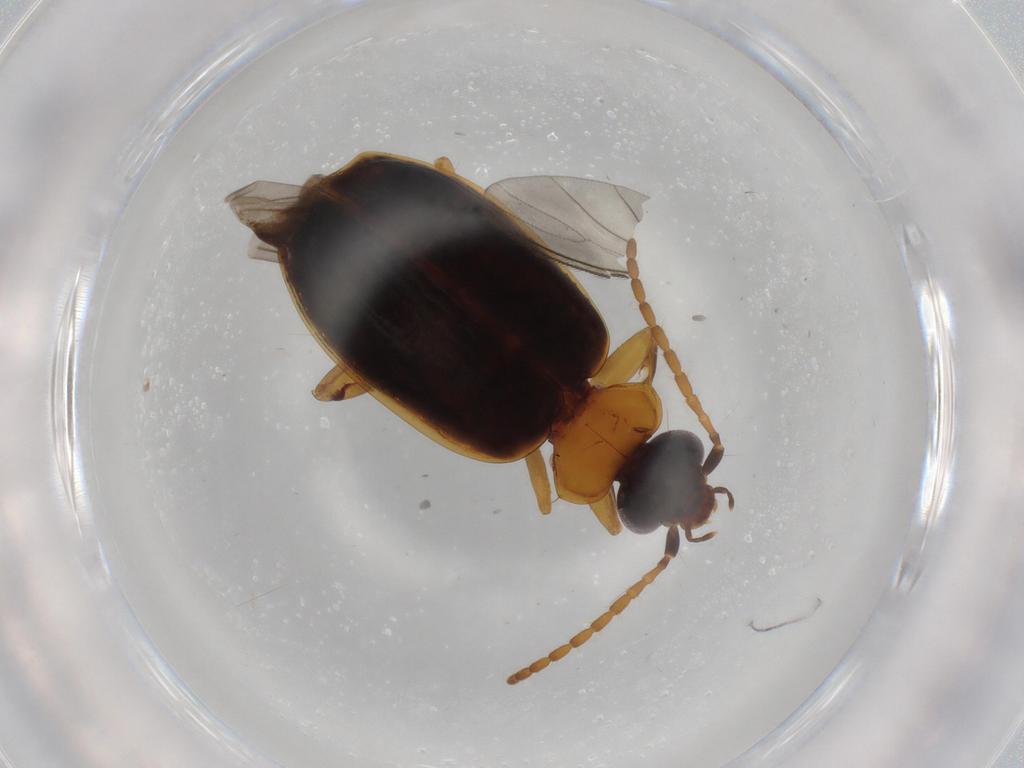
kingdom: Animalia
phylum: Arthropoda
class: Insecta
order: Coleoptera
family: Carabidae
